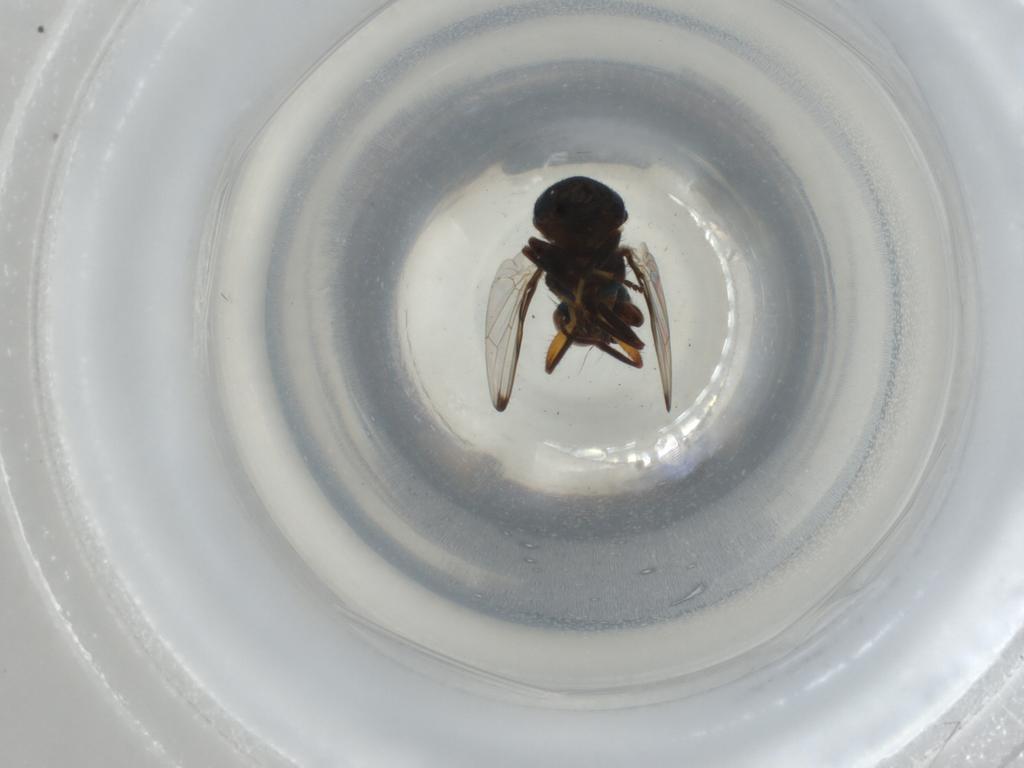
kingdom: Animalia
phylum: Arthropoda
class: Insecta
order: Diptera
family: Ulidiidae
